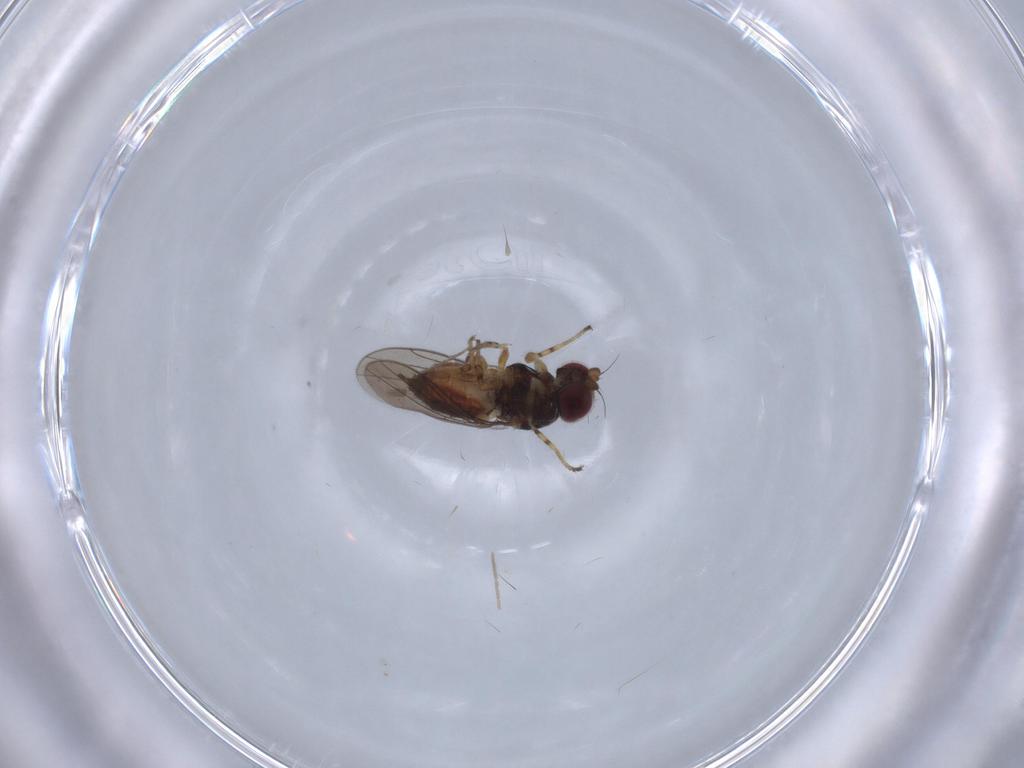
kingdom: Animalia
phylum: Arthropoda
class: Insecta
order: Diptera
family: Chloropidae
